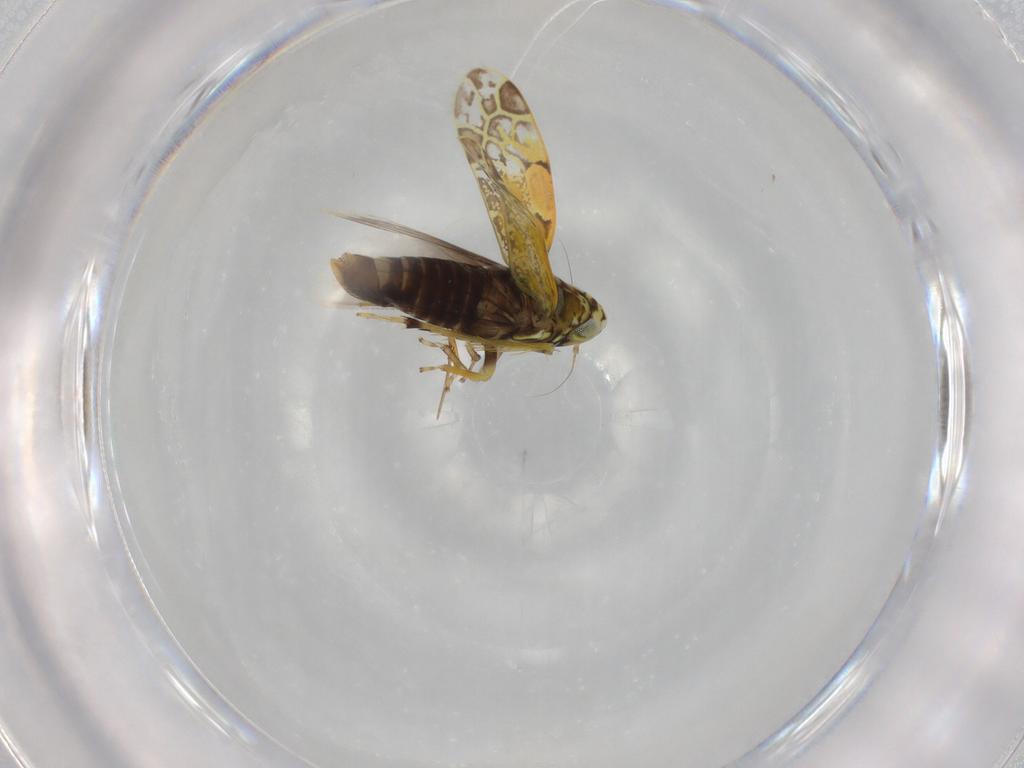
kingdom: Animalia
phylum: Arthropoda
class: Insecta
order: Hemiptera
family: Cicadellidae
